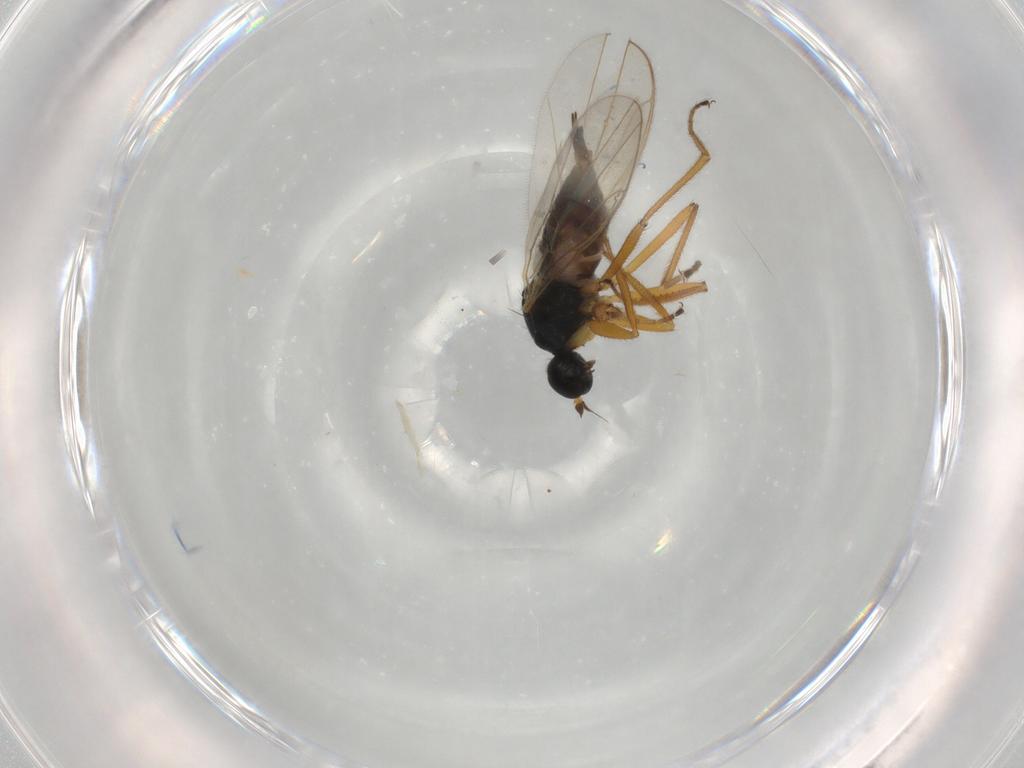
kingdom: Animalia
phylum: Arthropoda
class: Insecta
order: Diptera
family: Hybotidae
